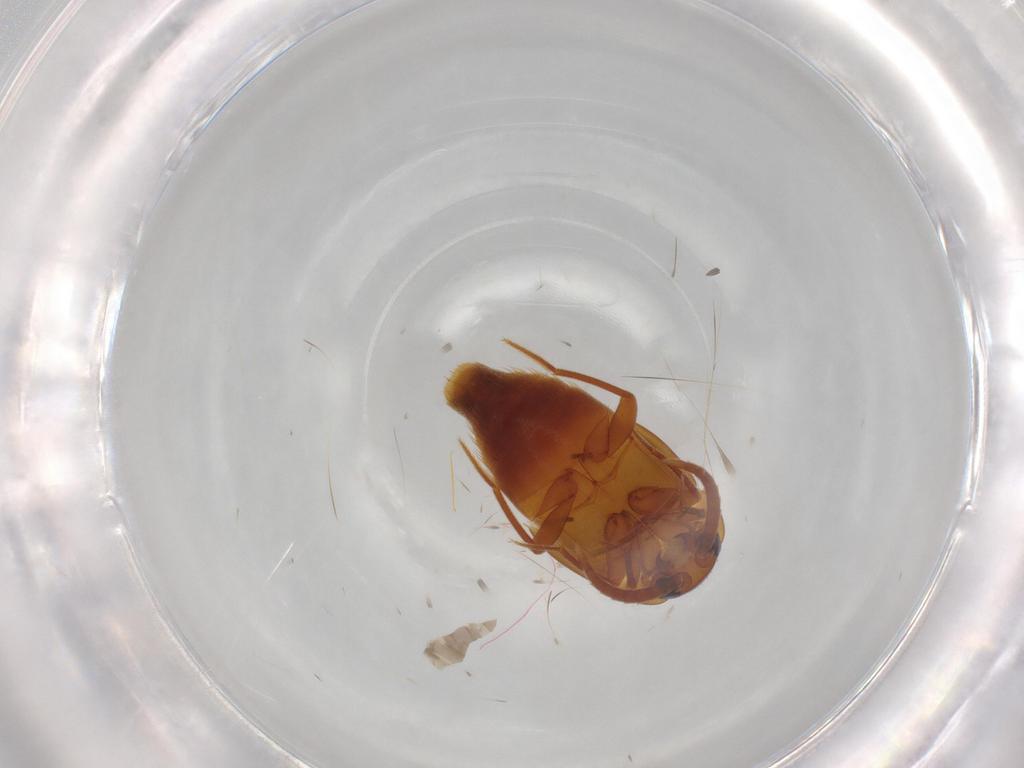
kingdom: Animalia
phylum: Arthropoda
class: Insecta
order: Coleoptera
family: Staphylinidae
